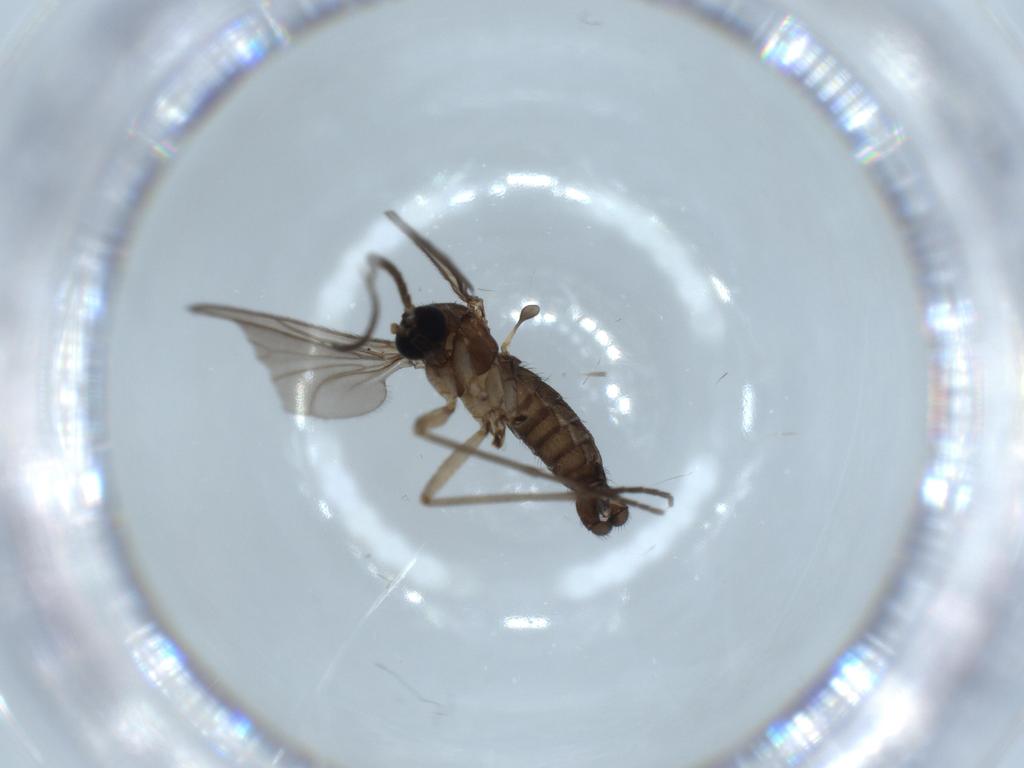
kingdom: Animalia
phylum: Arthropoda
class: Insecta
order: Diptera
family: Sciaridae
